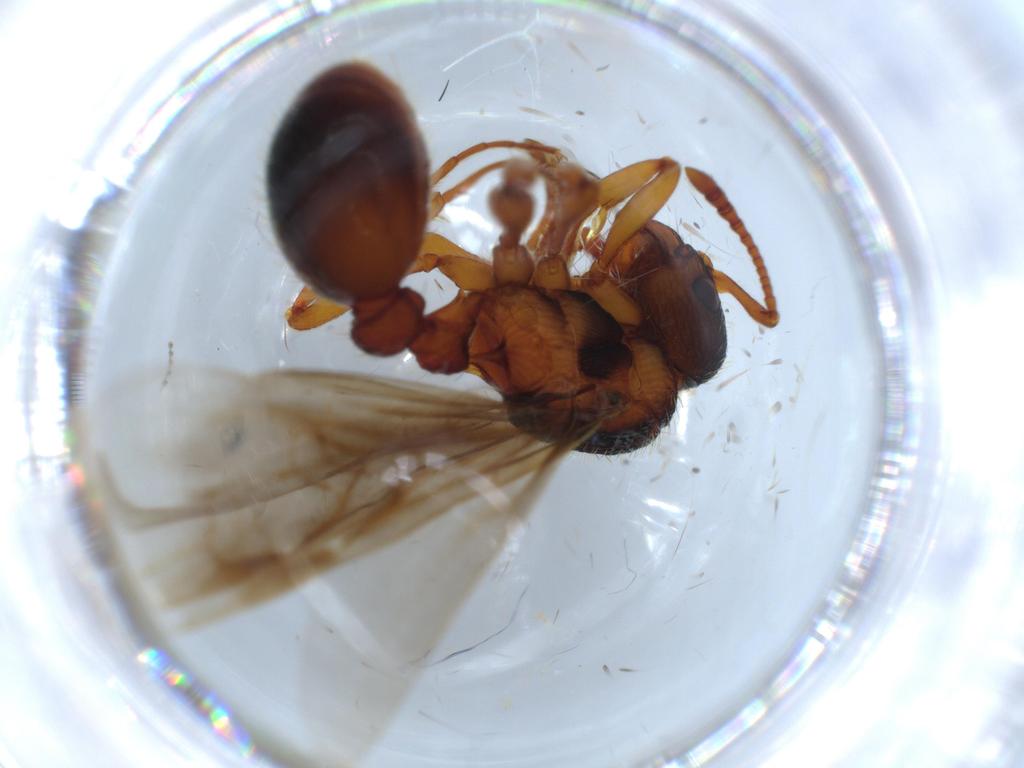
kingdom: Animalia
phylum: Arthropoda
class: Insecta
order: Hymenoptera
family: Formicidae
